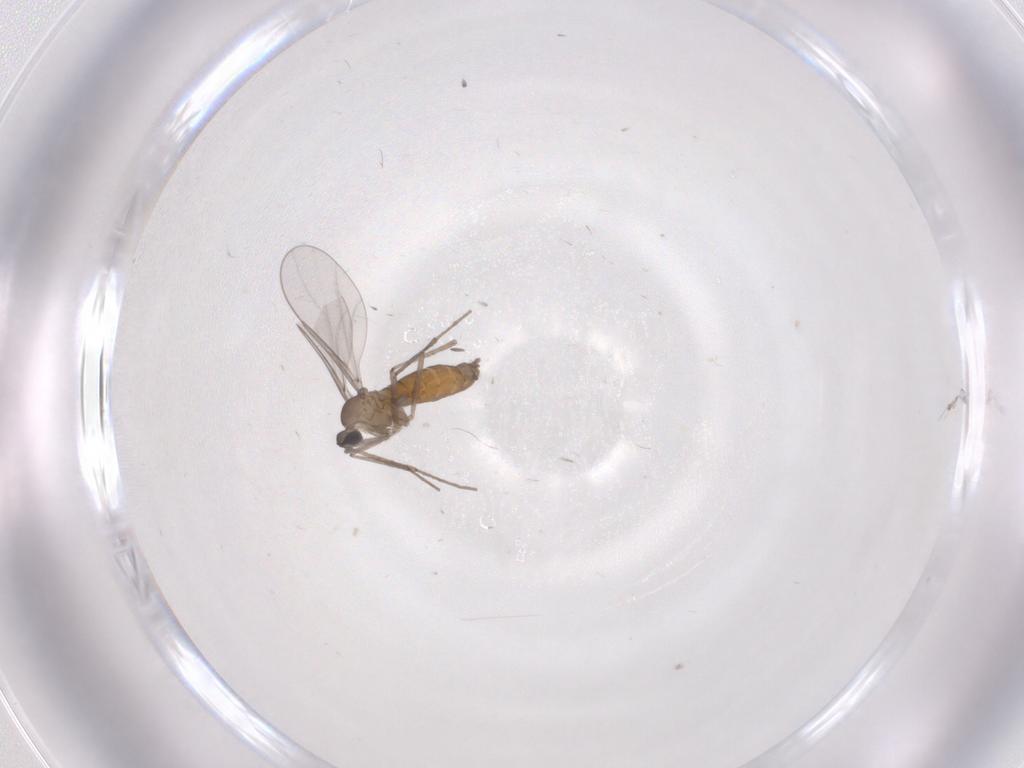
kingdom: Animalia
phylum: Arthropoda
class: Insecta
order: Diptera
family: Cecidomyiidae
